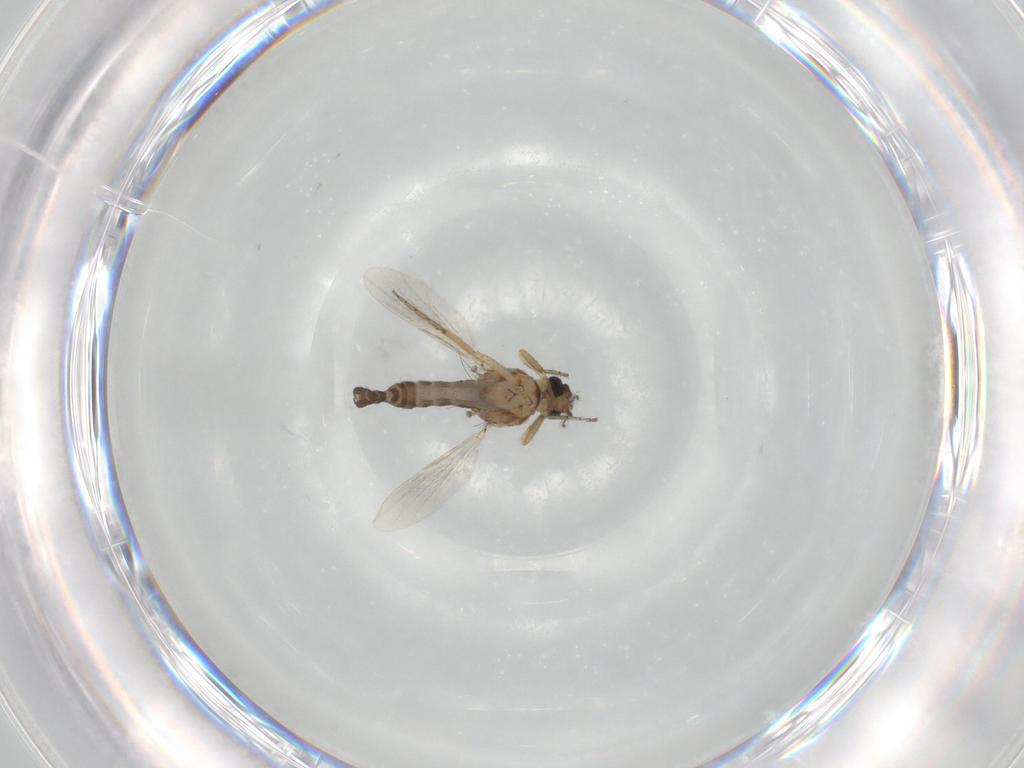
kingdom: Animalia
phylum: Arthropoda
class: Insecta
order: Diptera
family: Ceratopogonidae
